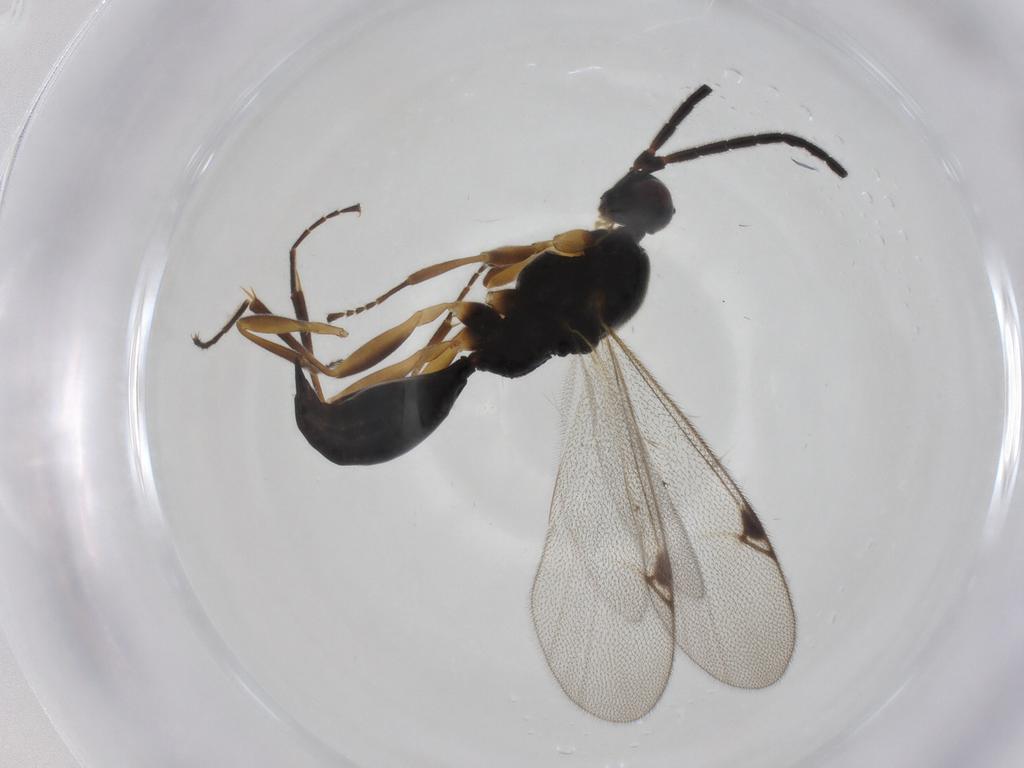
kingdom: Animalia
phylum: Arthropoda
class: Insecta
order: Hymenoptera
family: Proctotrupidae
